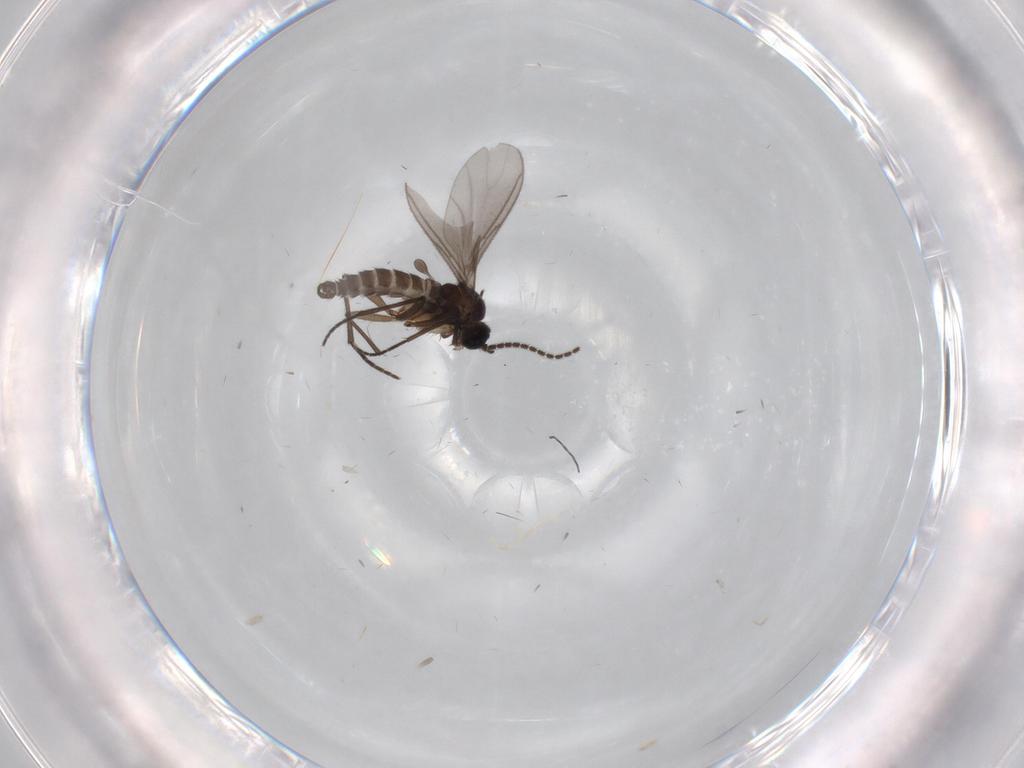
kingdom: Animalia
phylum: Arthropoda
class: Insecta
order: Diptera
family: Sciaridae
